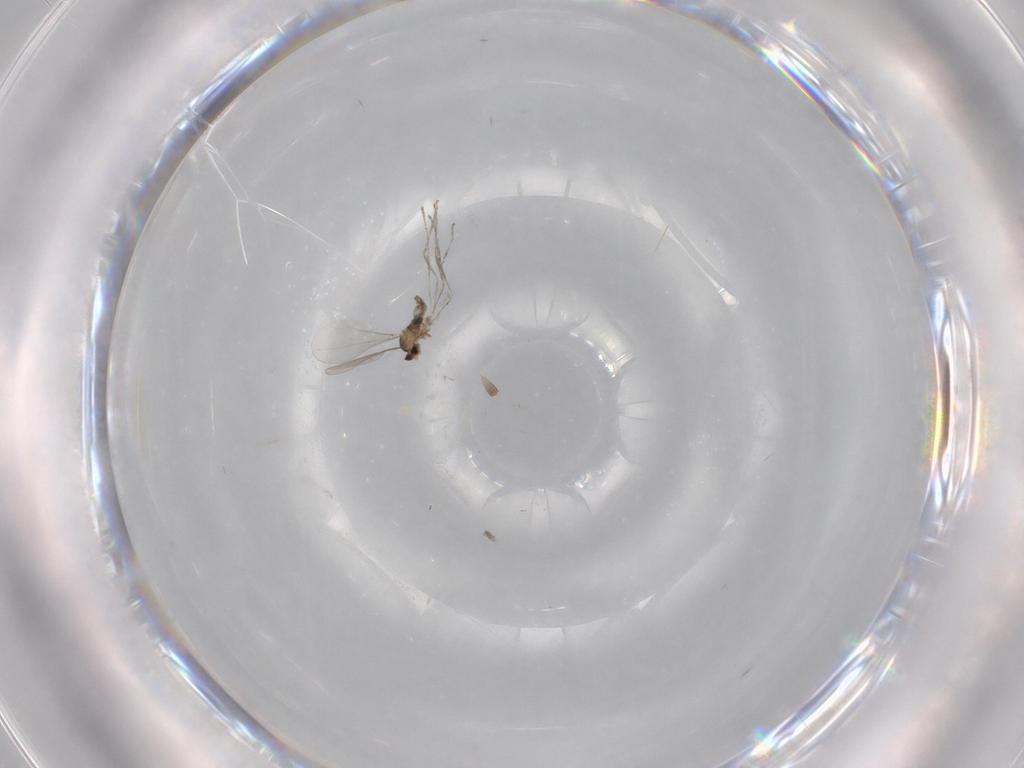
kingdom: Animalia
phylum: Arthropoda
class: Insecta
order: Diptera
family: Cecidomyiidae
